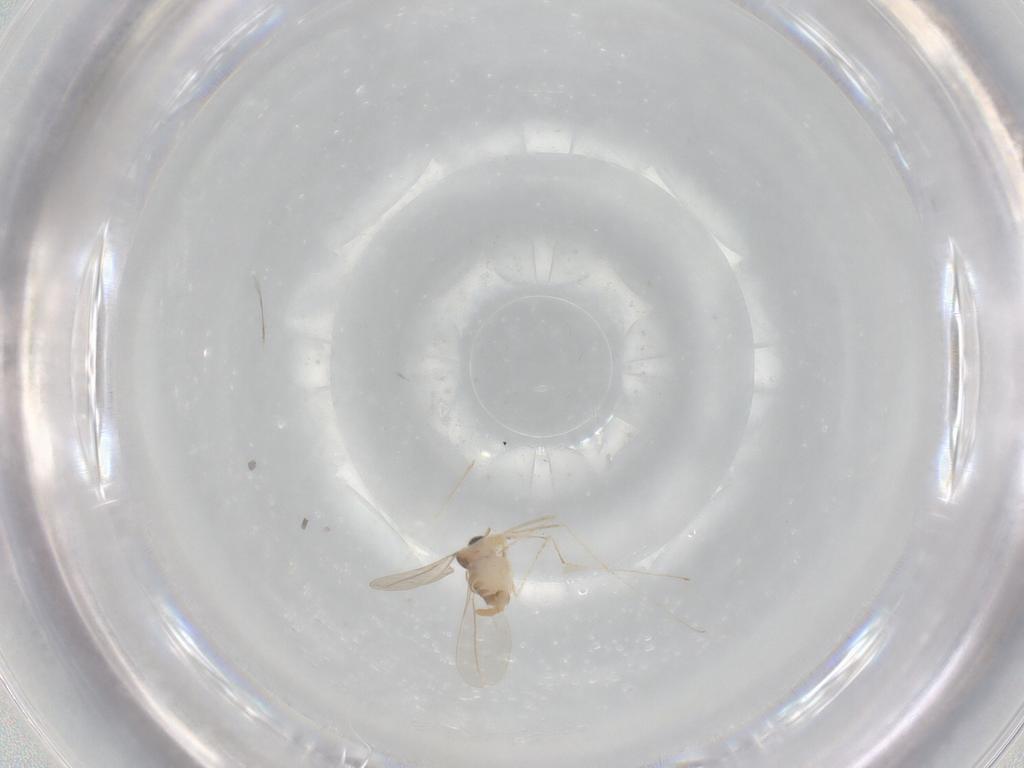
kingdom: Animalia
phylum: Arthropoda
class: Insecta
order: Diptera
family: Cecidomyiidae
